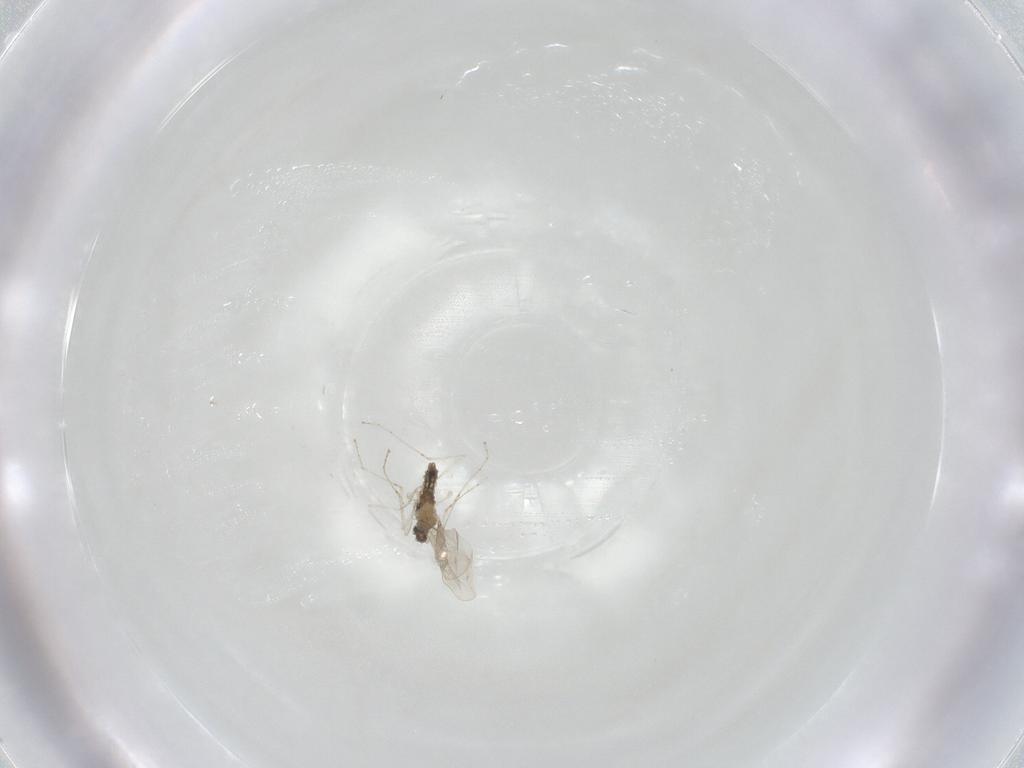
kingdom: Animalia
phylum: Arthropoda
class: Insecta
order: Diptera
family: Cecidomyiidae
